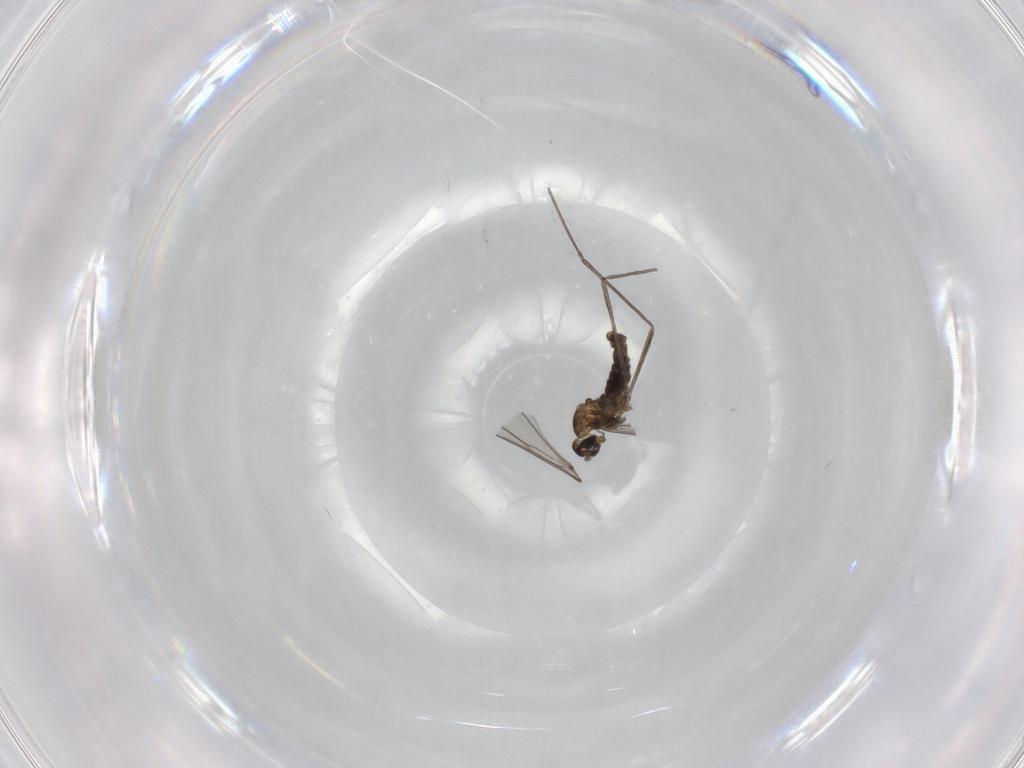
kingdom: Animalia
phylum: Arthropoda
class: Insecta
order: Diptera
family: Cecidomyiidae
